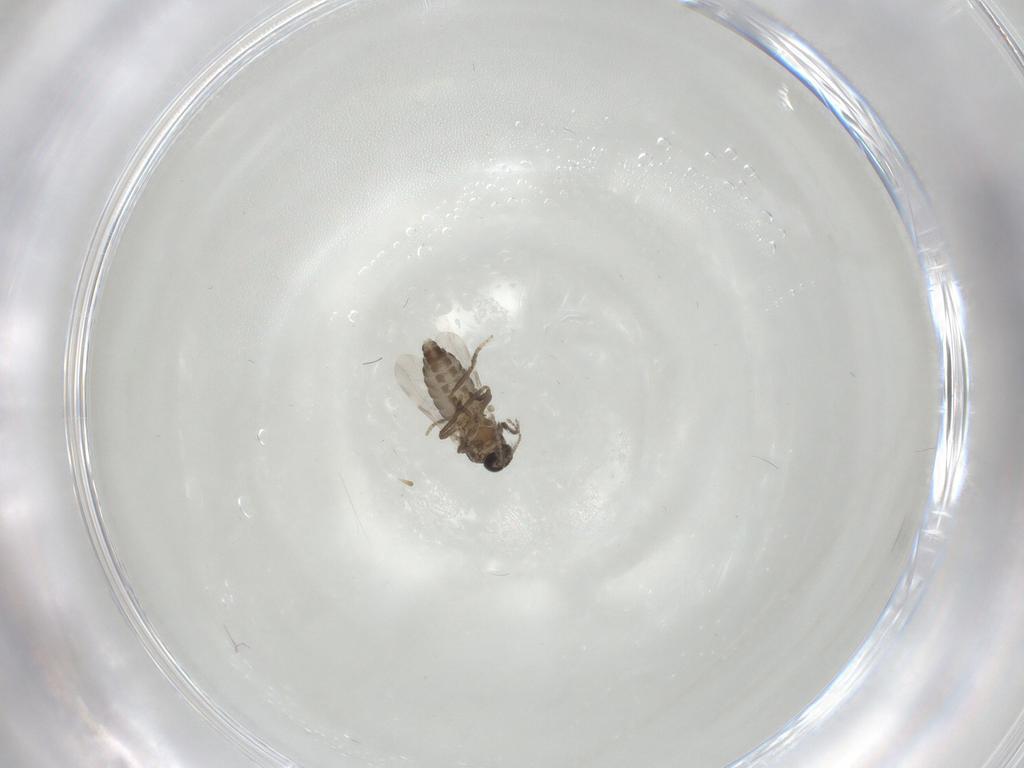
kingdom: Animalia
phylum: Arthropoda
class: Insecta
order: Diptera
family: Ceratopogonidae
